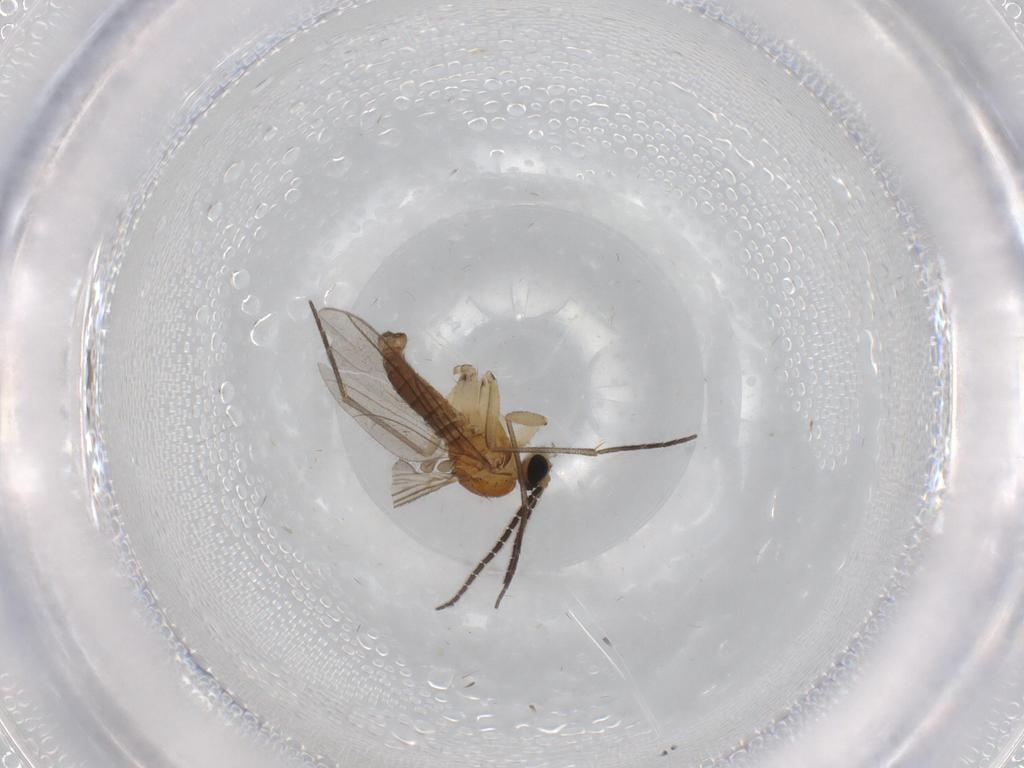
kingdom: Animalia
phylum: Arthropoda
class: Insecta
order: Diptera
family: Sciaridae
